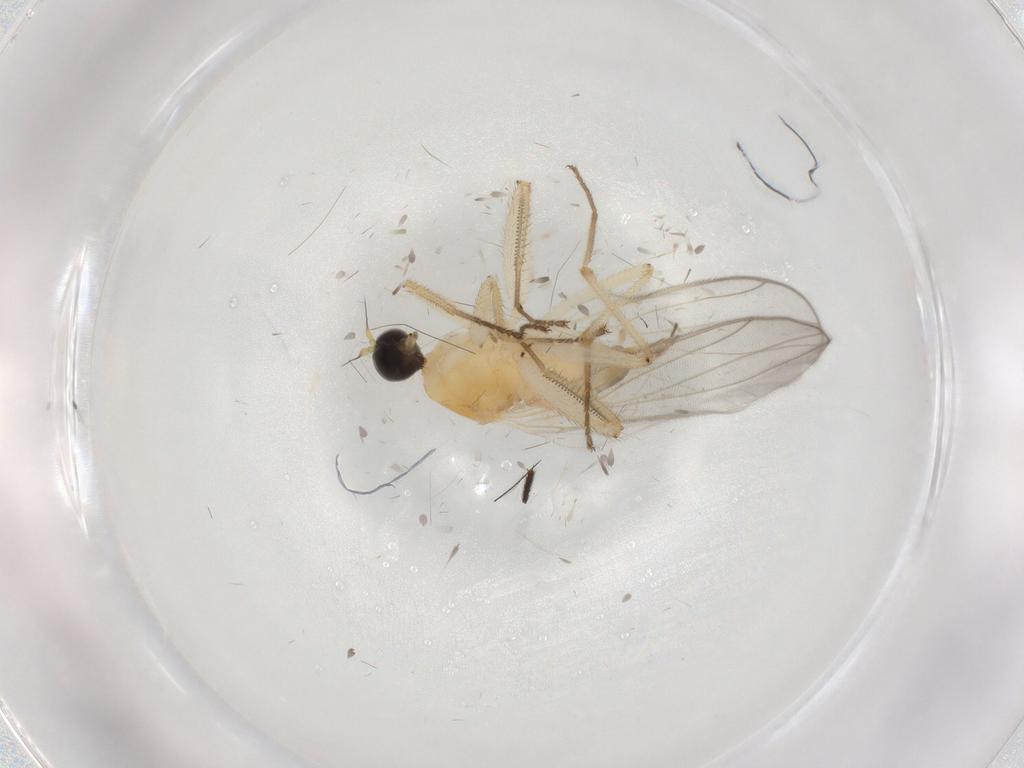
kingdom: Animalia
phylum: Arthropoda
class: Insecta
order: Diptera
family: Hybotidae
